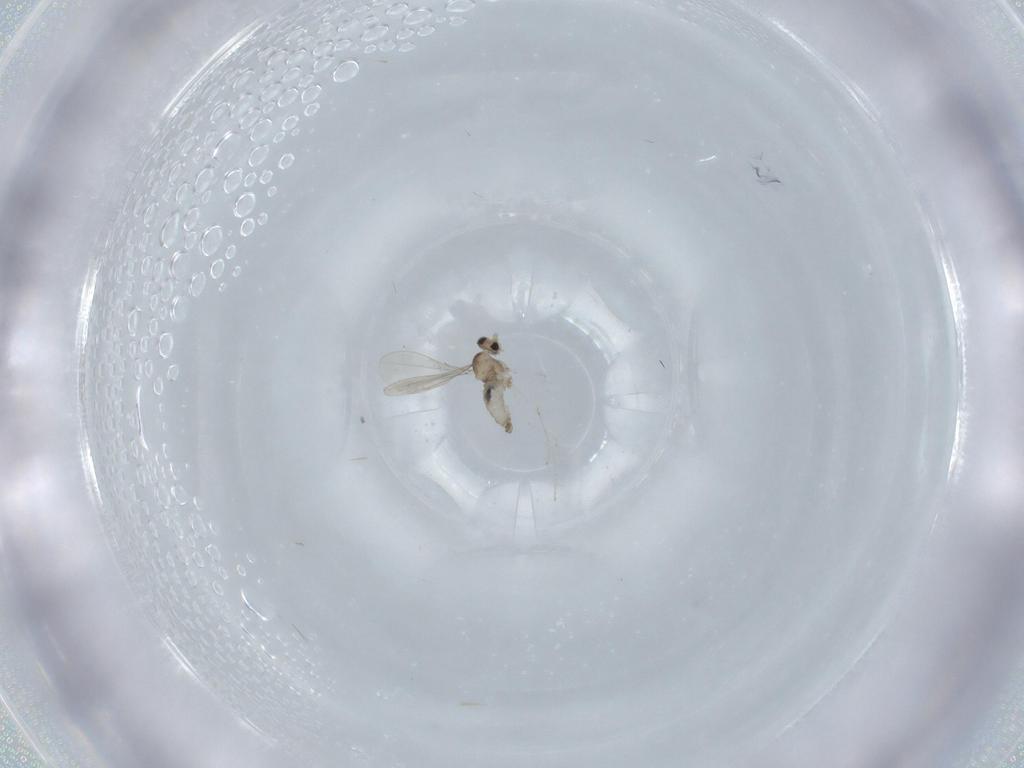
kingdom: Animalia
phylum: Arthropoda
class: Insecta
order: Diptera
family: Cecidomyiidae
